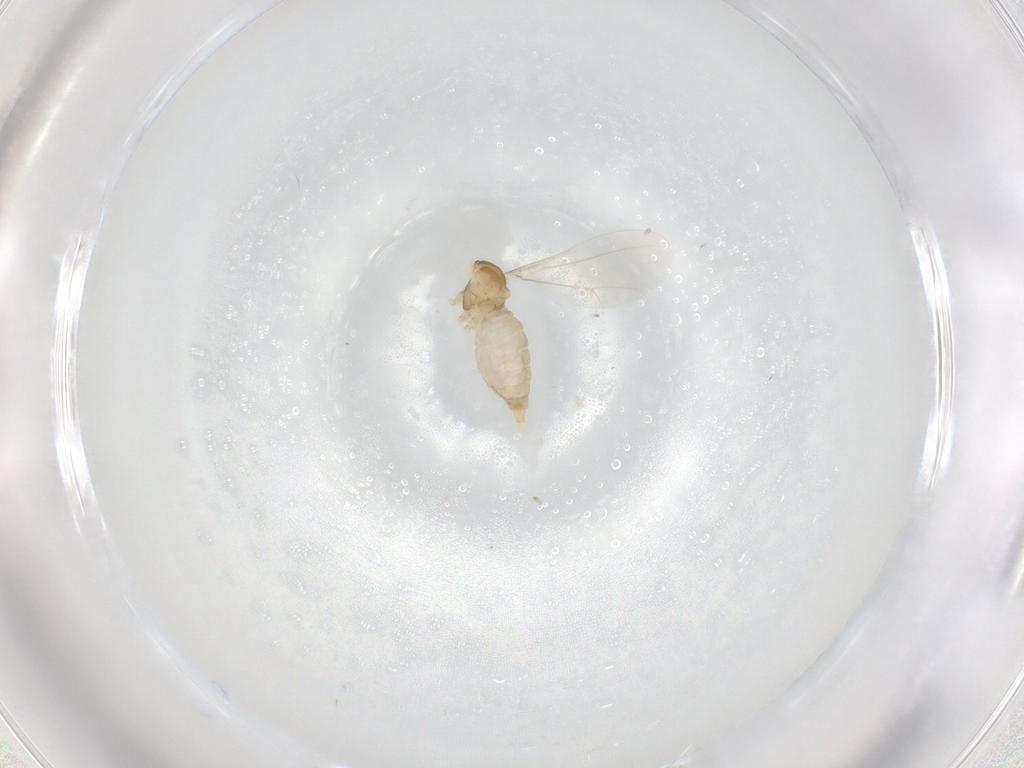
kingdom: Animalia
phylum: Arthropoda
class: Insecta
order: Diptera
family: Cecidomyiidae
